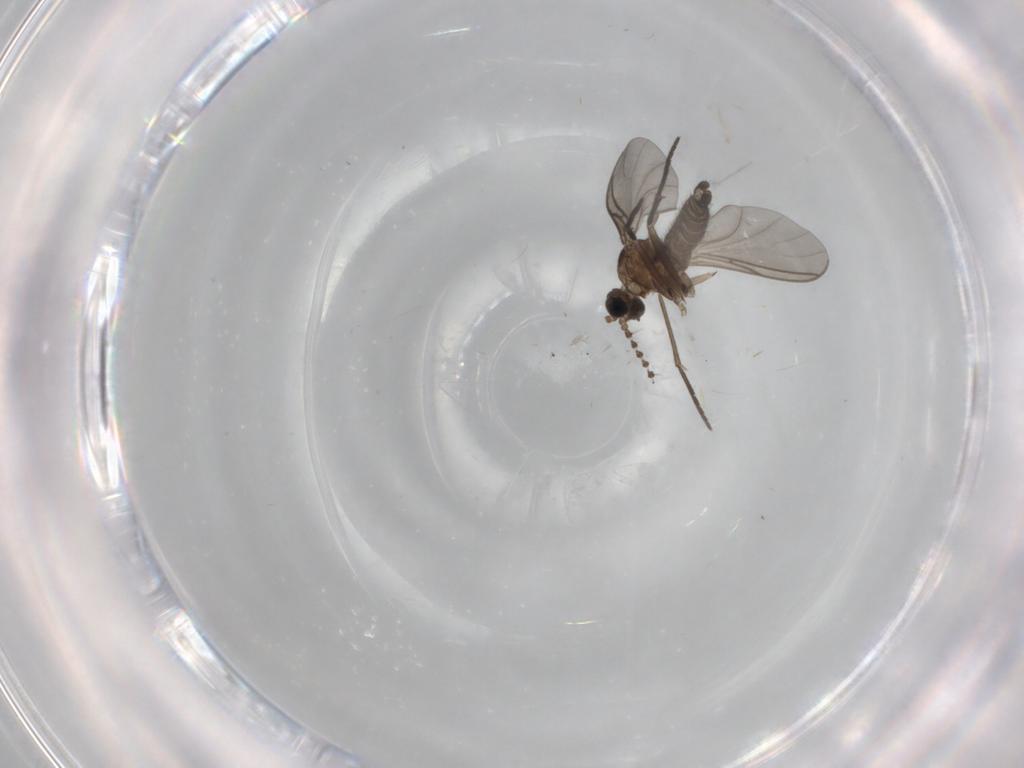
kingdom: Animalia
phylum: Arthropoda
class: Insecta
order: Diptera
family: Sciaridae
